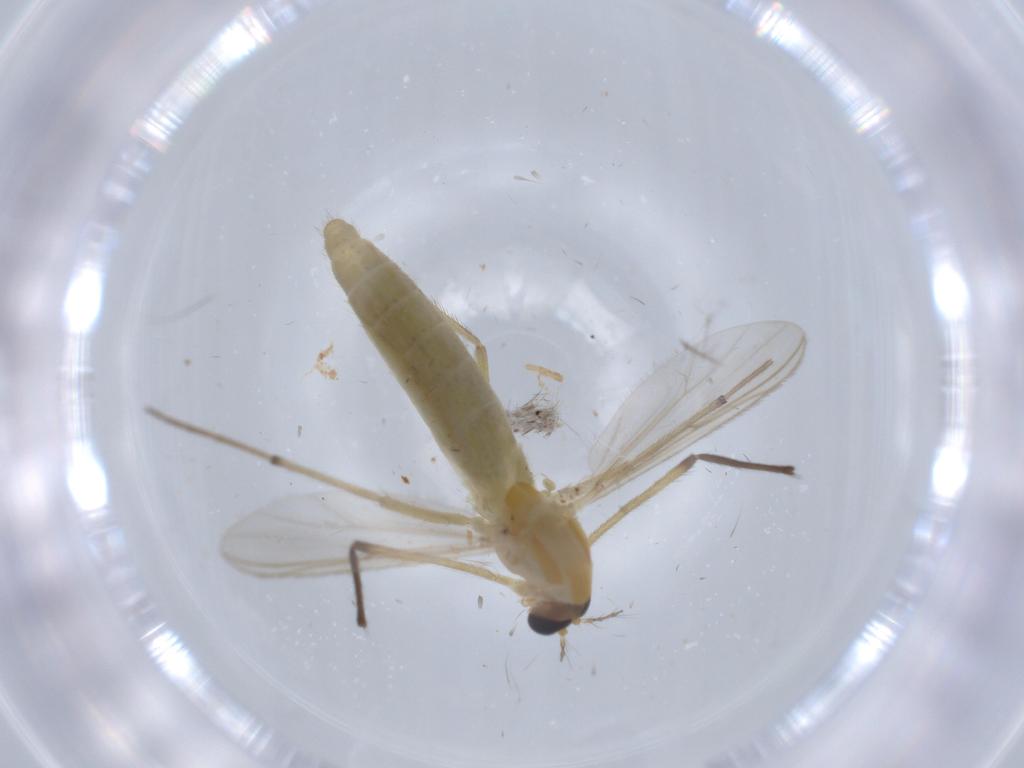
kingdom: Animalia
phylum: Arthropoda
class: Insecta
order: Diptera
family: Chironomidae
